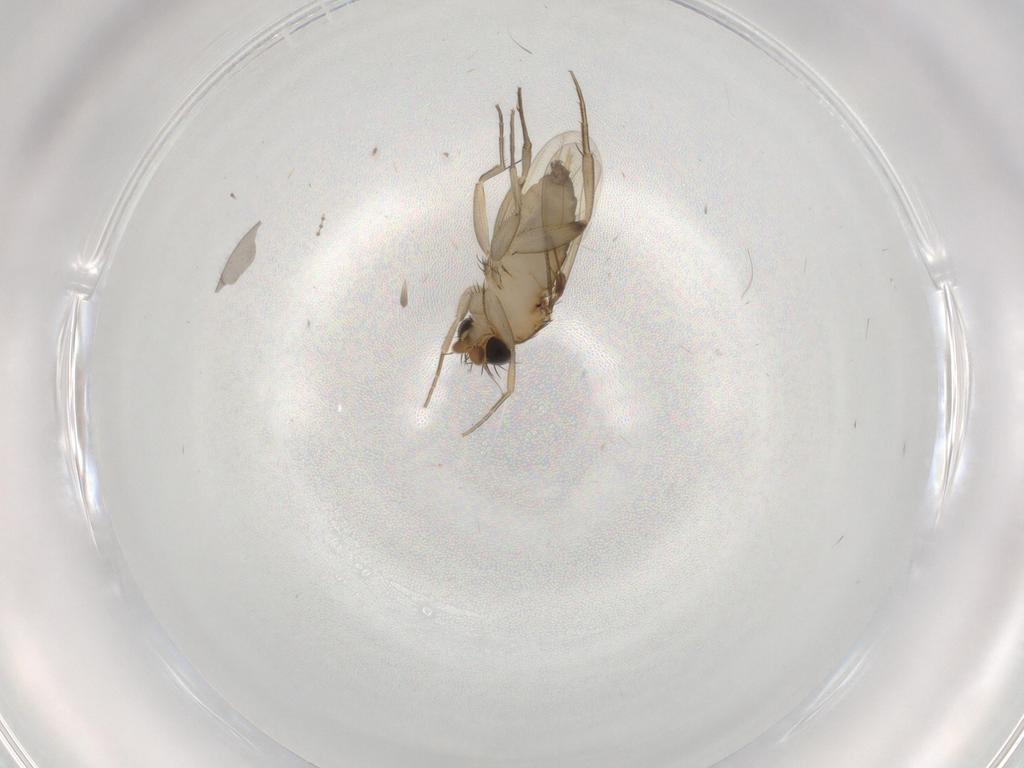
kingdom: Animalia
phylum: Arthropoda
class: Insecta
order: Diptera
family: Phoridae
